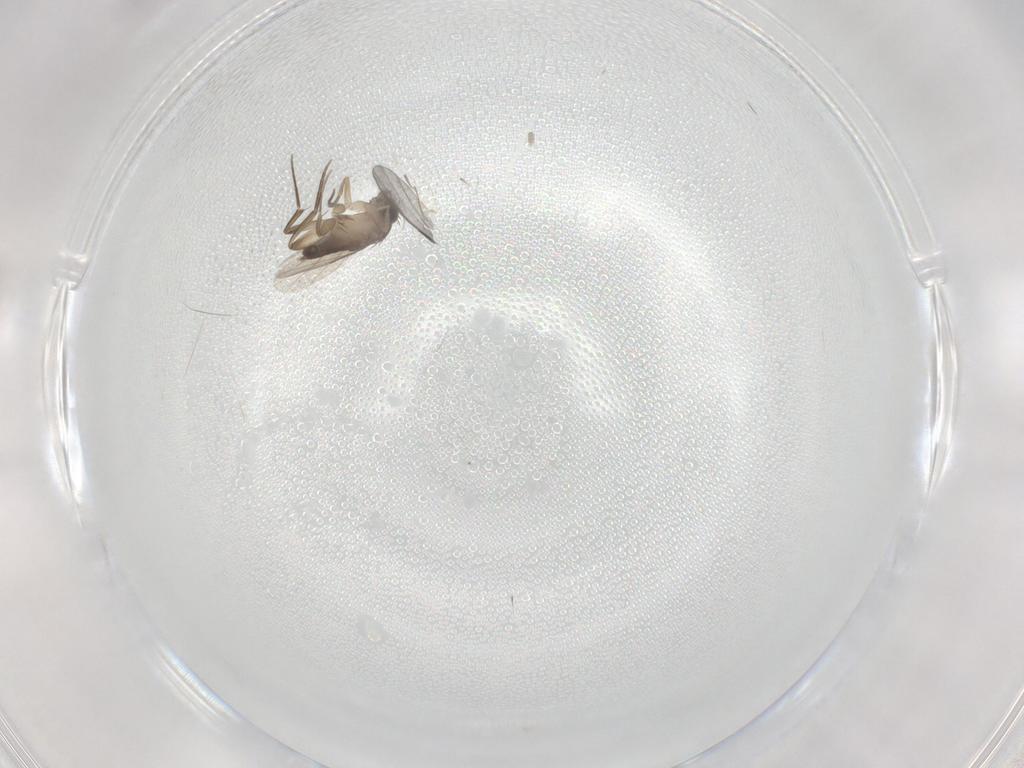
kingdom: Animalia
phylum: Arthropoda
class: Insecta
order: Diptera
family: Phoridae
